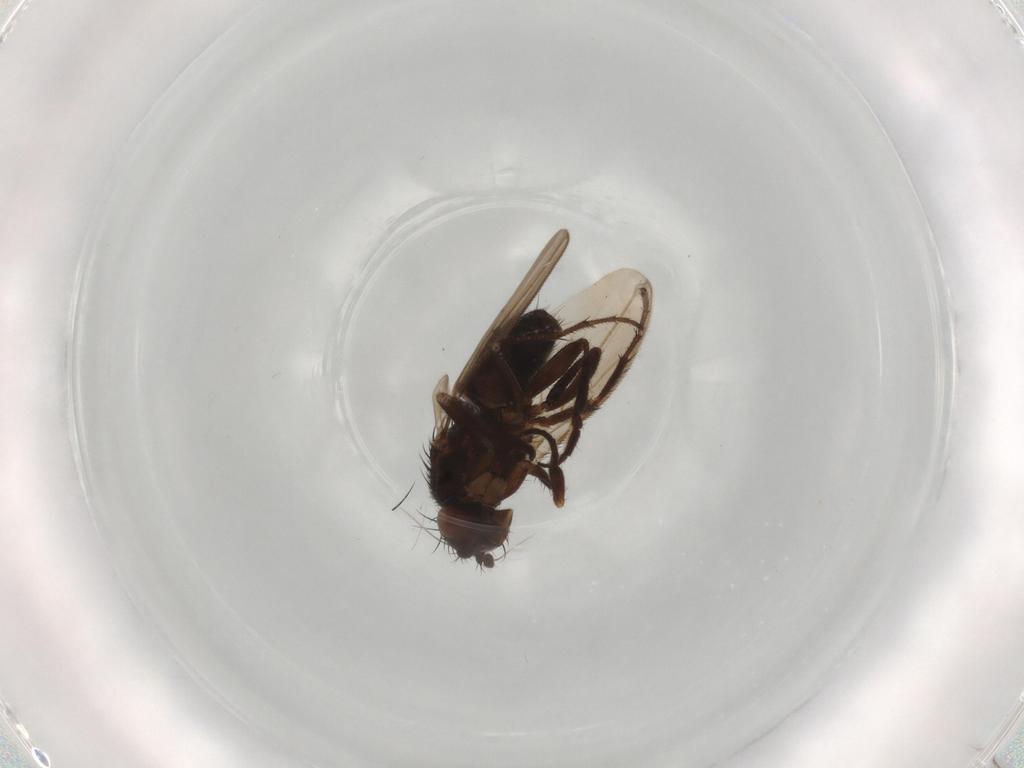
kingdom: Animalia
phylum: Arthropoda
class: Insecta
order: Diptera
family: Sphaeroceridae
